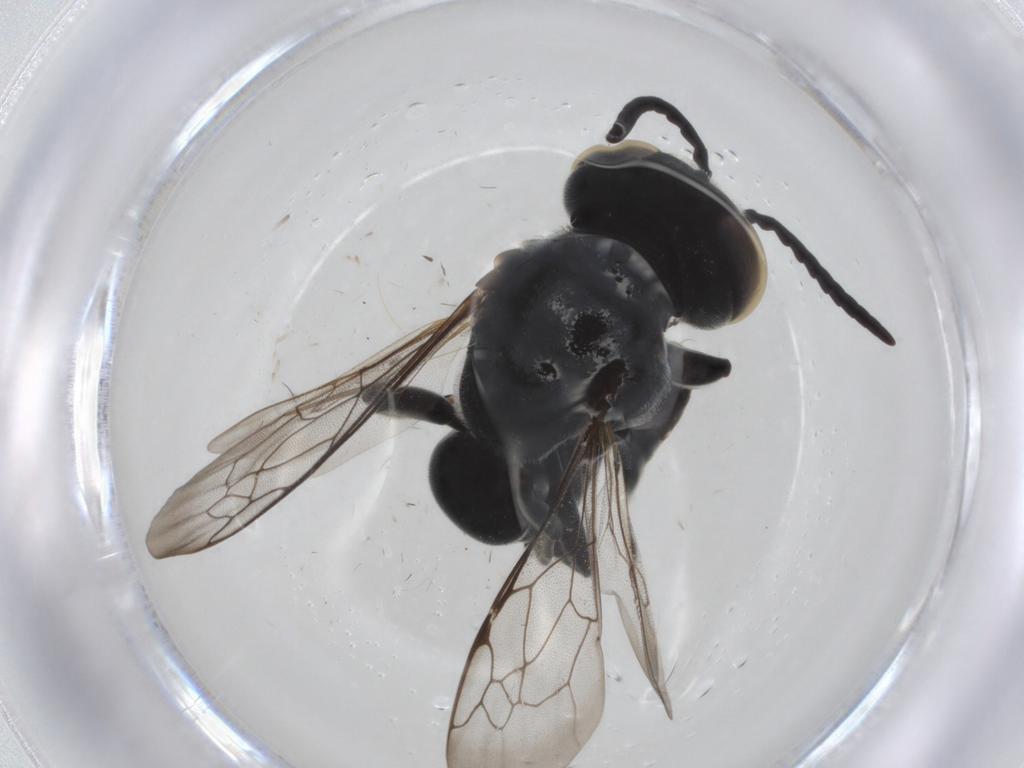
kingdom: Animalia
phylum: Arthropoda
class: Insecta
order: Hymenoptera
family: Crabronidae
